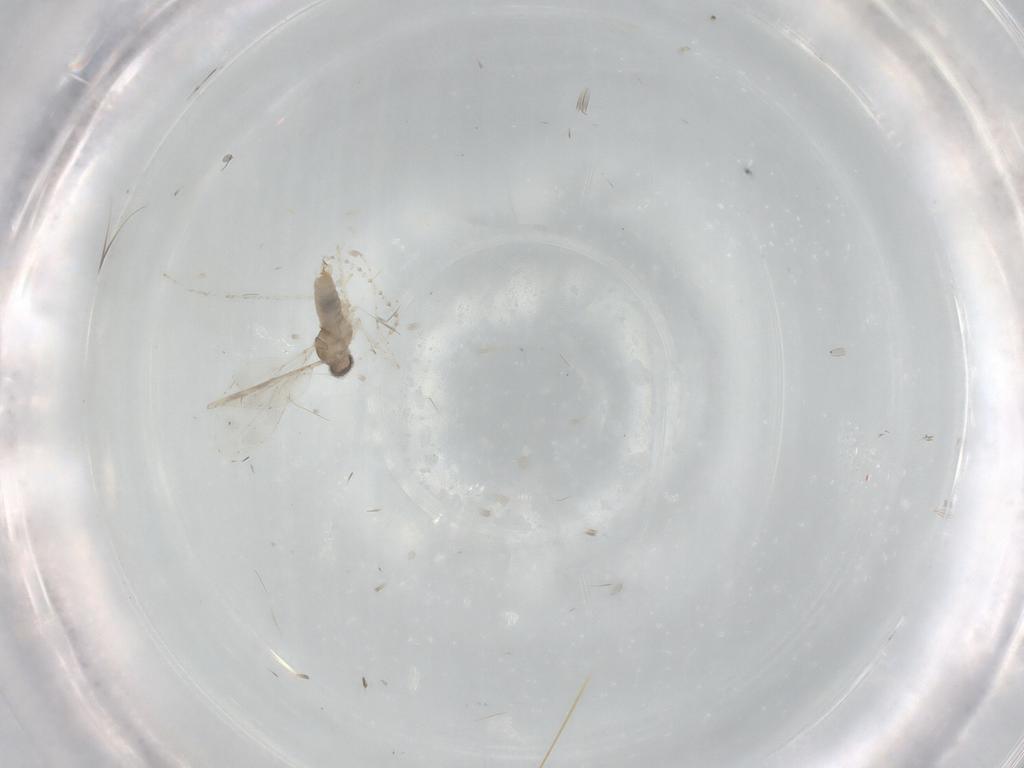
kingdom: Animalia
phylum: Arthropoda
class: Insecta
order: Diptera
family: Cecidomyiidae
